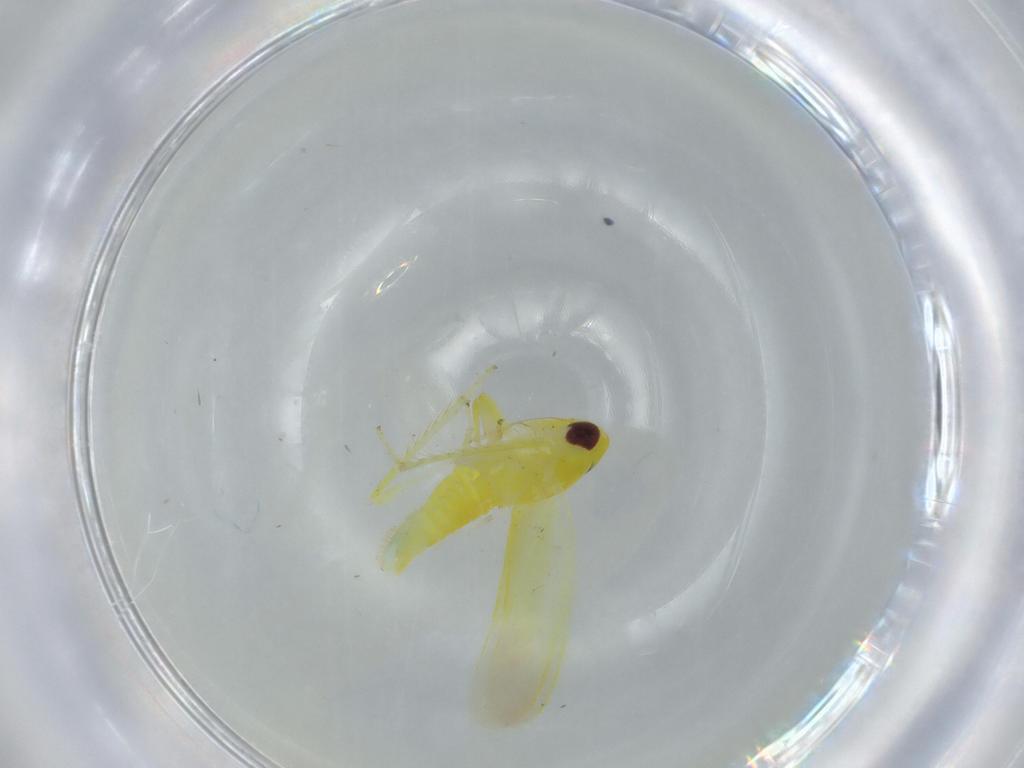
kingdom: Animalia
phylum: Arthropoda
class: Insecta
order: Hemiptera
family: Cicadellidae
